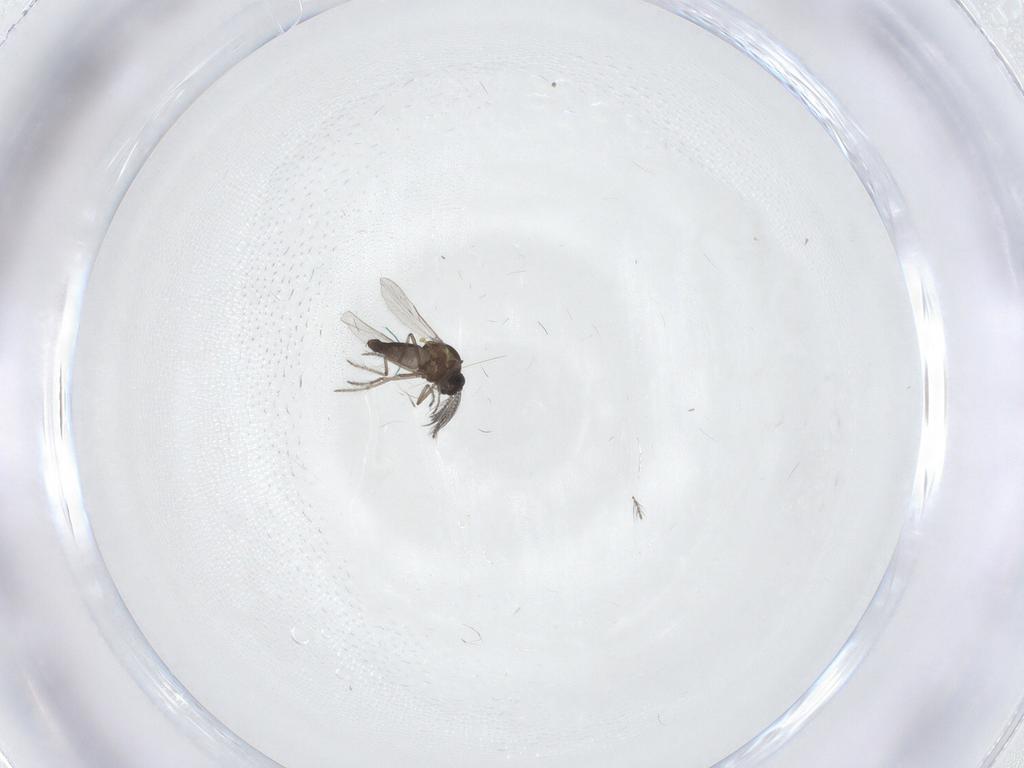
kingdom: Animalia
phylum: Arthropoda
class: Insecta
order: Diptera
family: Ceratopogonidae
